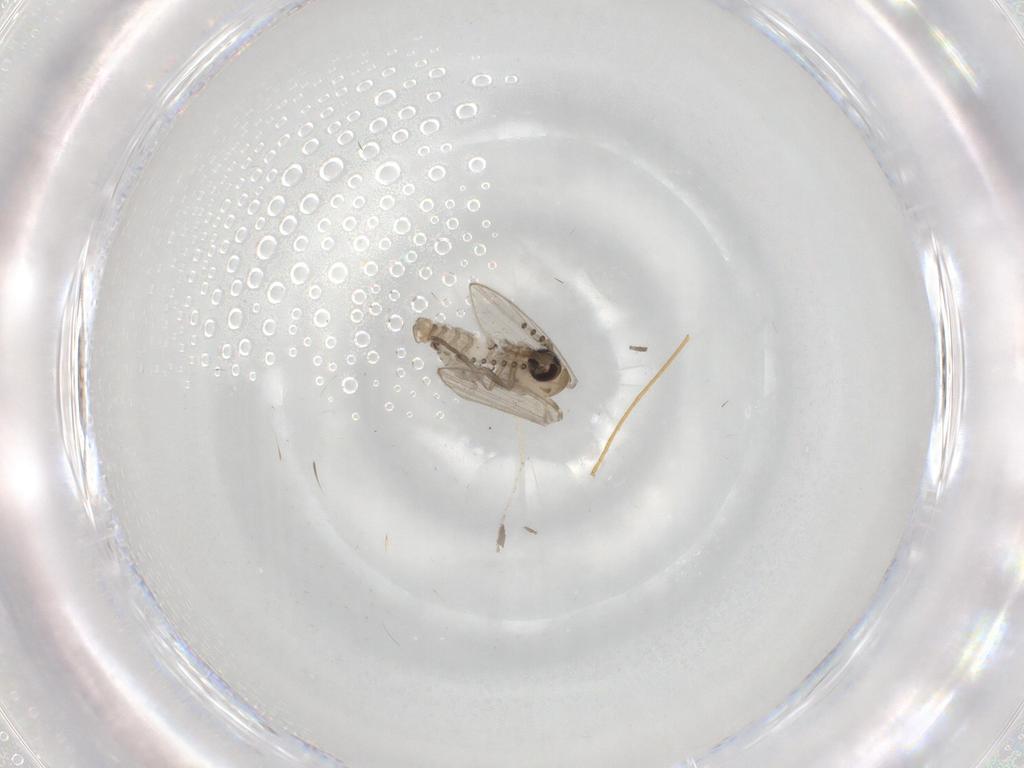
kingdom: Animalia
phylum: Arthropoda
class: Insecta
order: Diptera
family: Psychodidae
